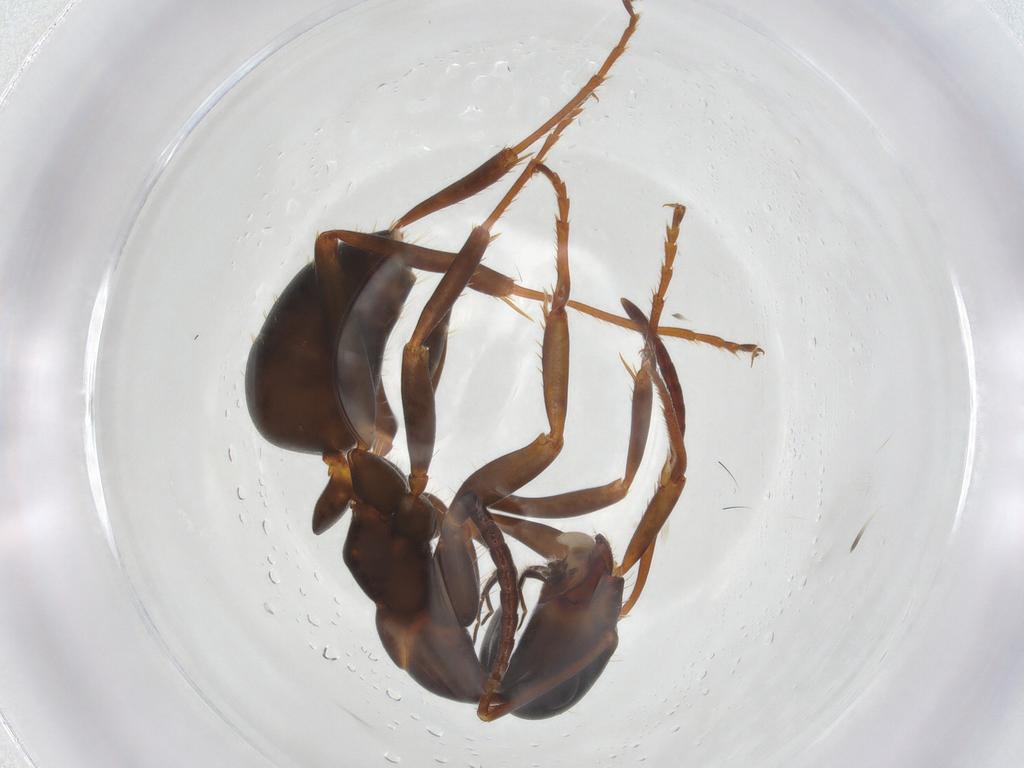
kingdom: Animalia
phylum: Arthropoda
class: Insecta
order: Hymenoptera
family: Formicidae
